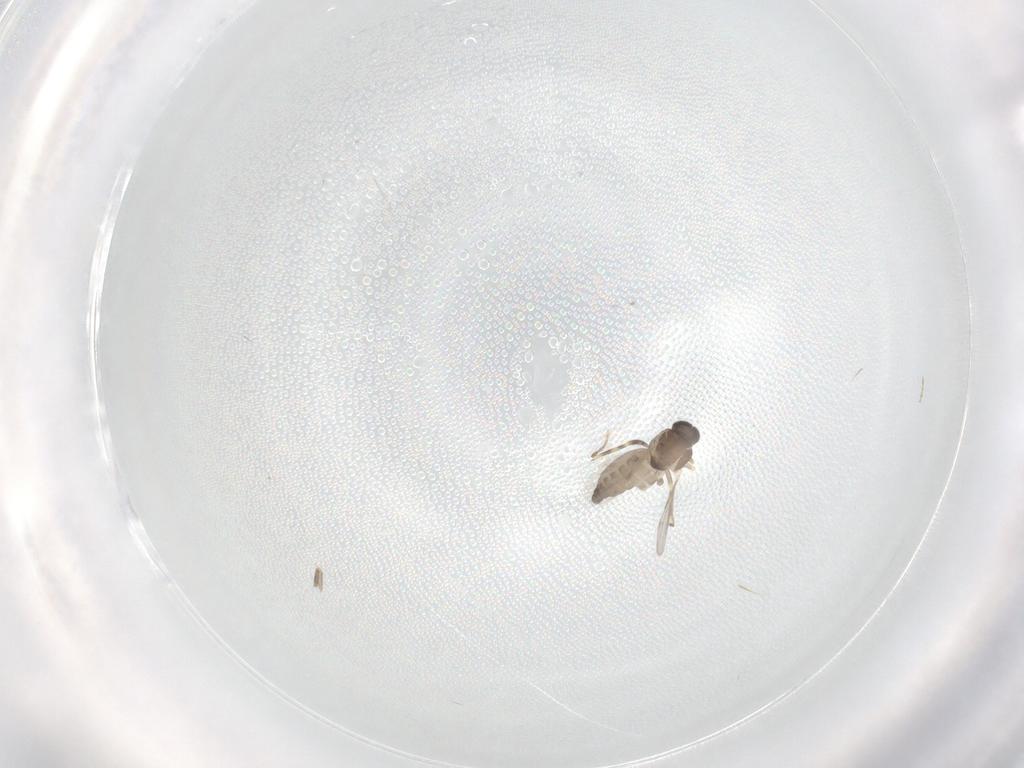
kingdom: Animalia
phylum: Arthropoda
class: Insecta
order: Diptera
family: Ceratopogonidae
